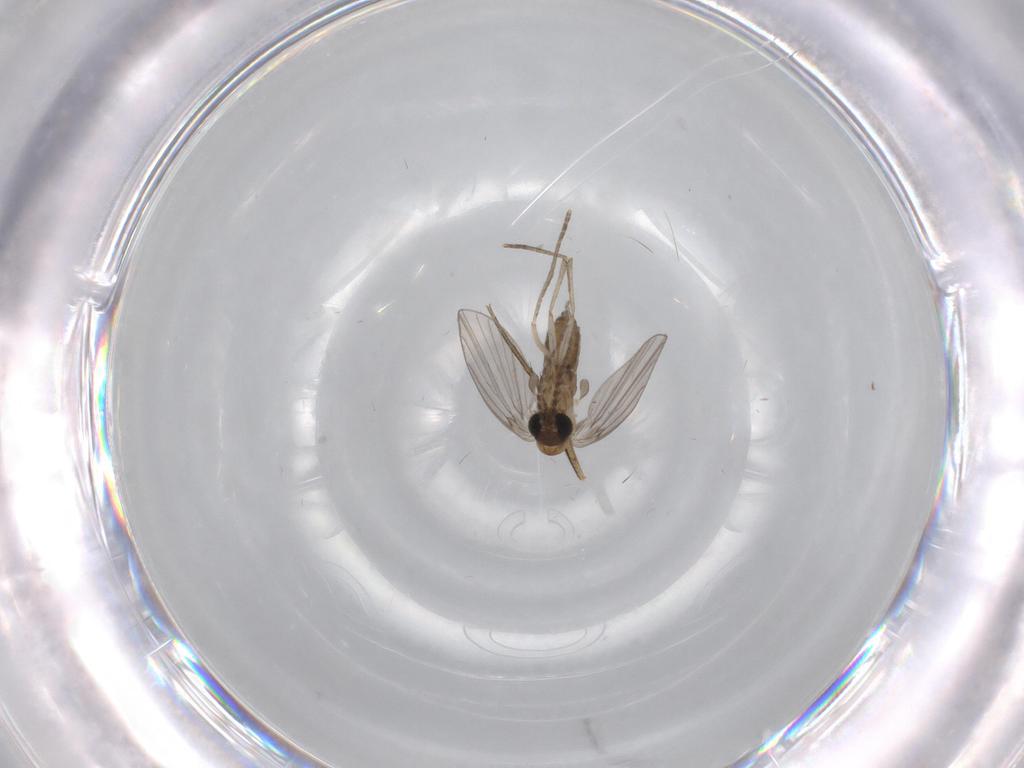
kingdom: Animalia
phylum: Arthropoda
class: Insecta
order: Diptera
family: Phoridae
